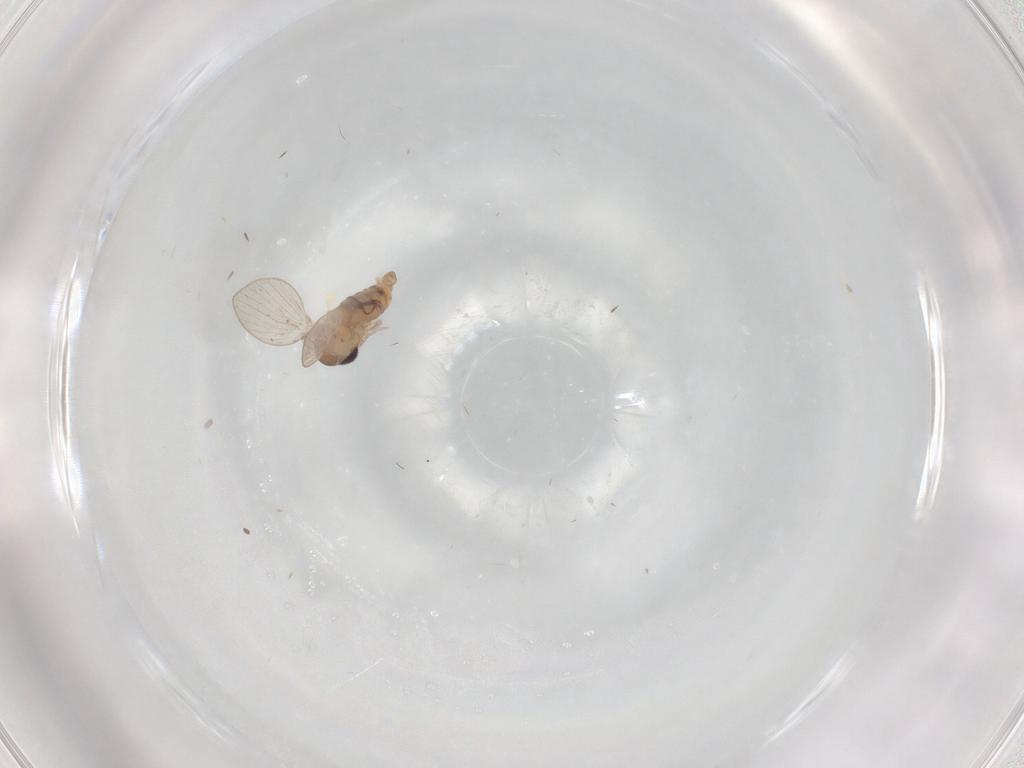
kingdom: Animalia
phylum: Arthropoda
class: Insecta
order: Diptera
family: Psychodidae
